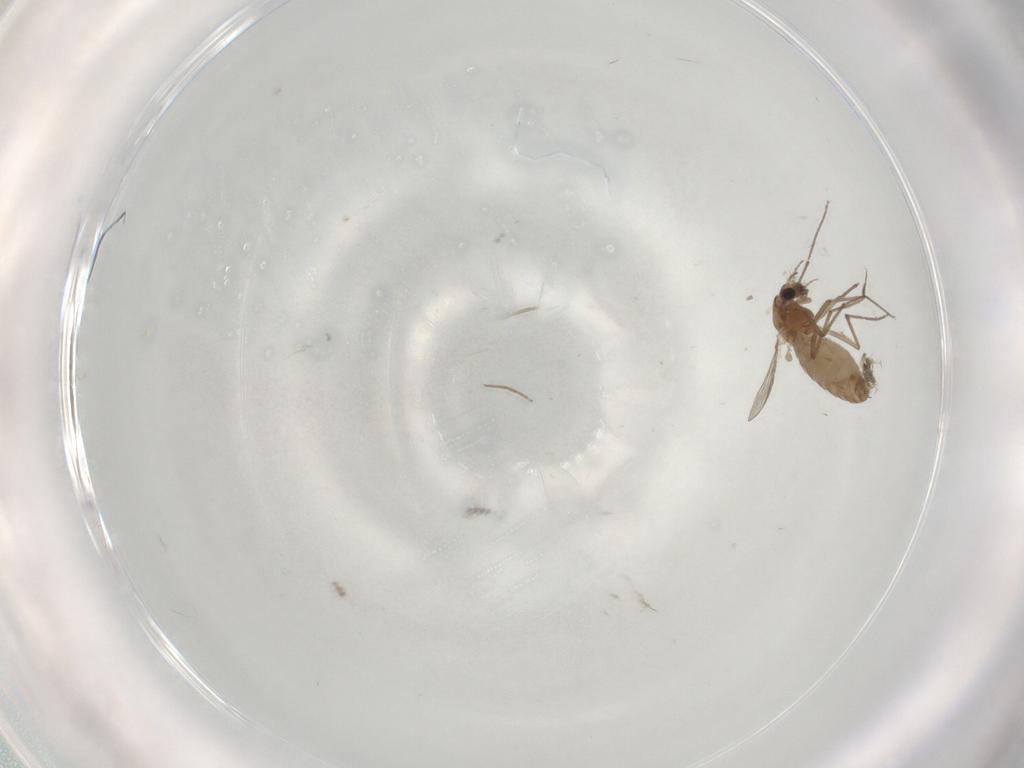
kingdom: Animalia
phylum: Arthropoda
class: Insecta
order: Diptera
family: Chironomidae
